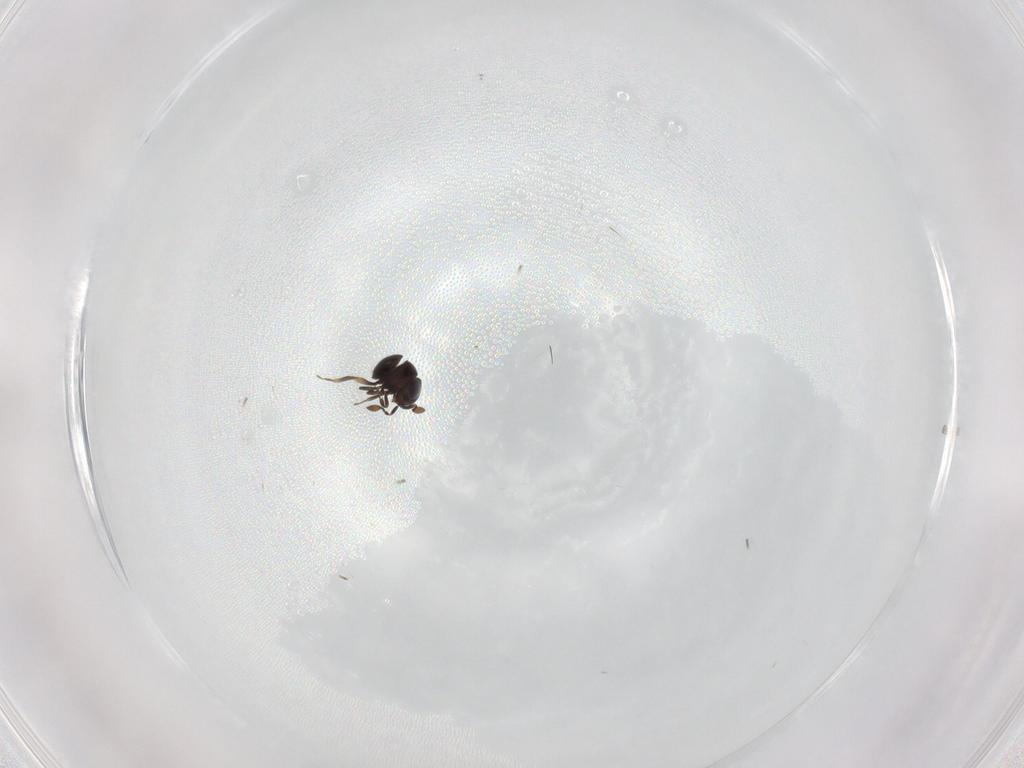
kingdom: Animalia
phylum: Arthropoda
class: Insecta
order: Hymenoptera
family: Scelionidae
